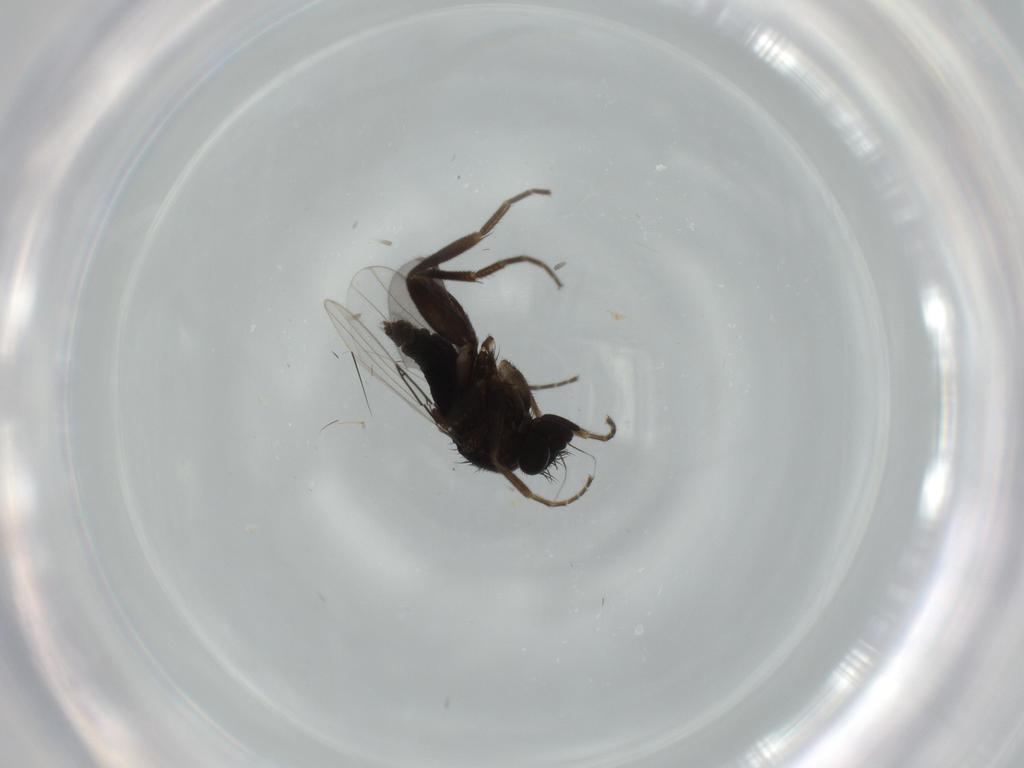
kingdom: Animalia
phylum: Arthropoda
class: Insecta
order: Diptera
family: Phoridae
